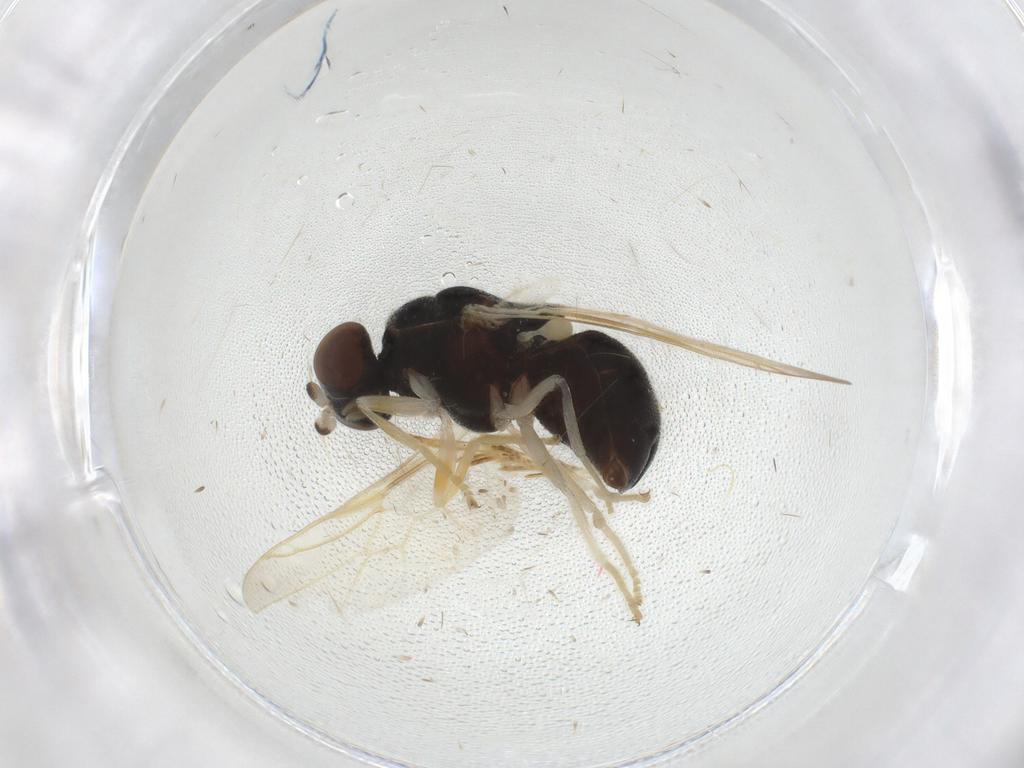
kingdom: Animalia
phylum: Arthropoda
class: Insecta
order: Diptera
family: Stratiomyidae
